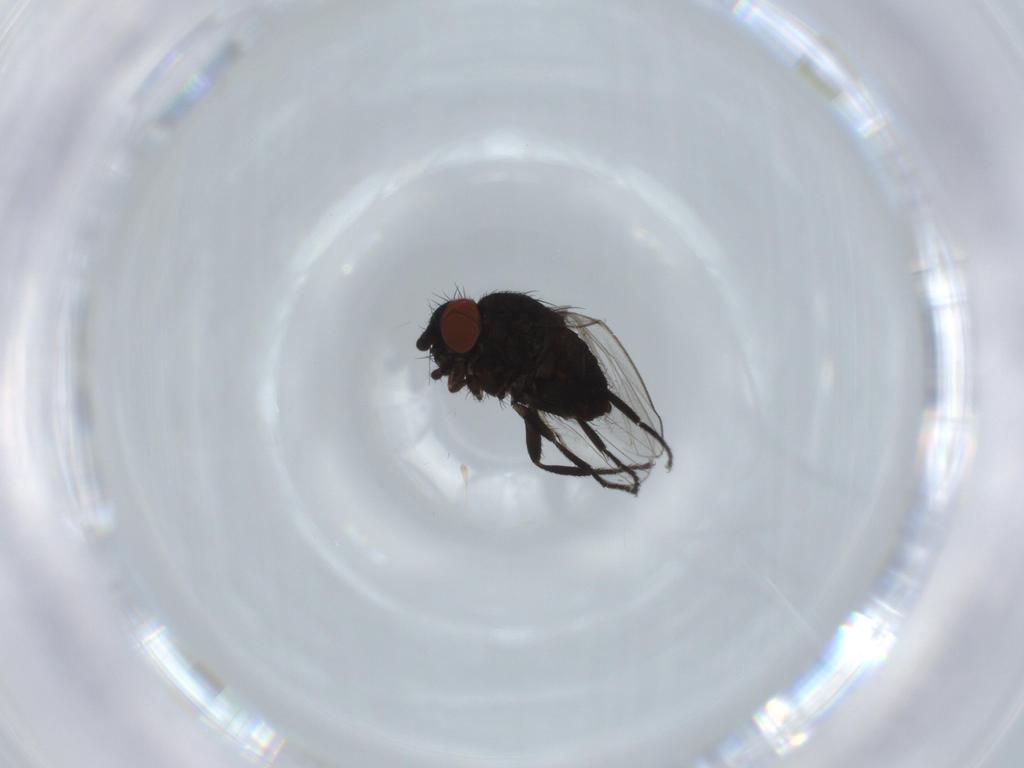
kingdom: Animalia
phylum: Arthropoda
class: Insecta
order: Diptera
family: Milichiidae
